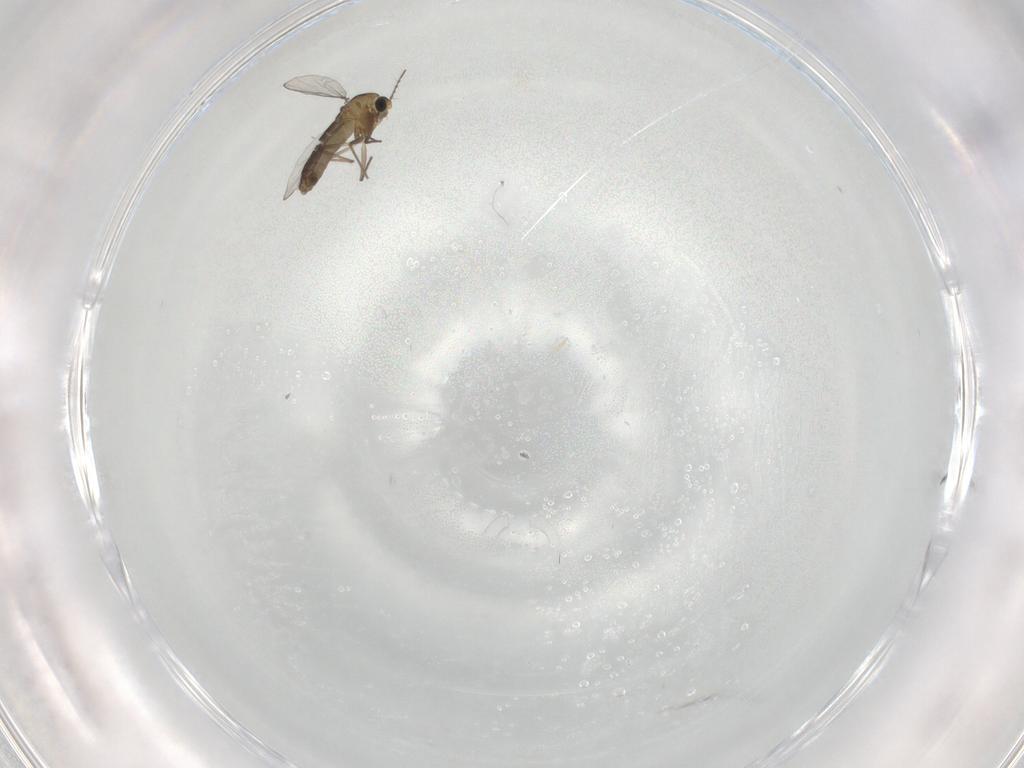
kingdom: Animalia
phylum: Arthropoda
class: Insecta
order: Diptera
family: Chironomidae
